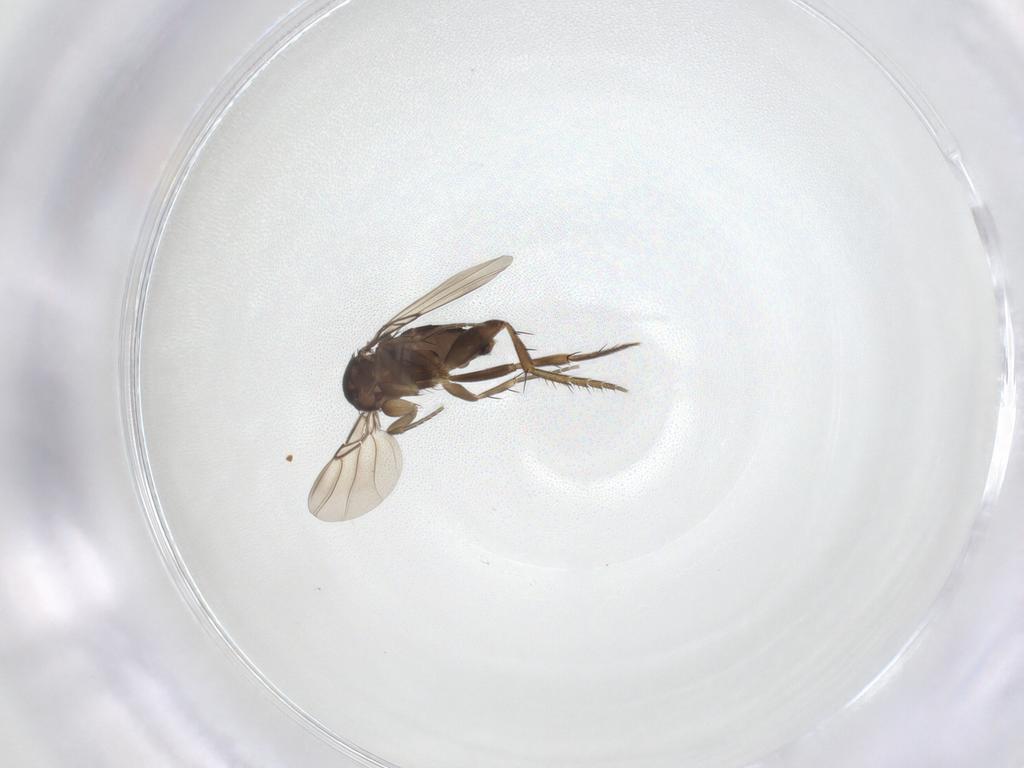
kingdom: Animalia
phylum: Arthropoda
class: Insecta
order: Diptera
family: Phoridae
